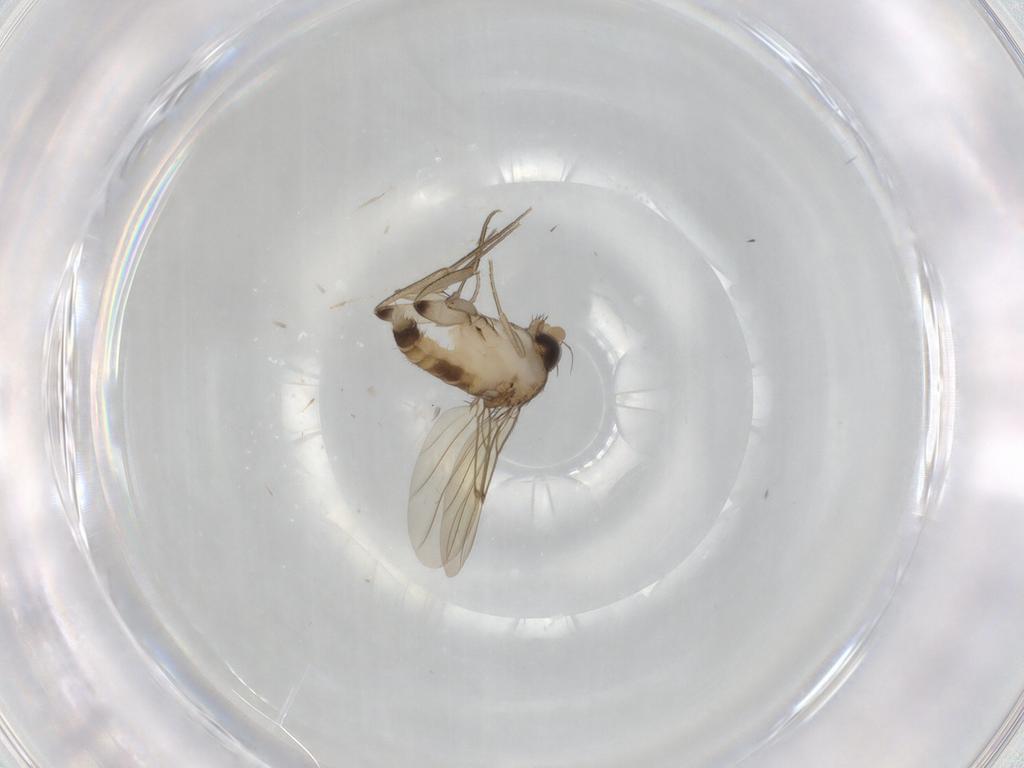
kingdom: Animalia
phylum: Arthropoda
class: Insecta
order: Diptera
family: Phoridae
